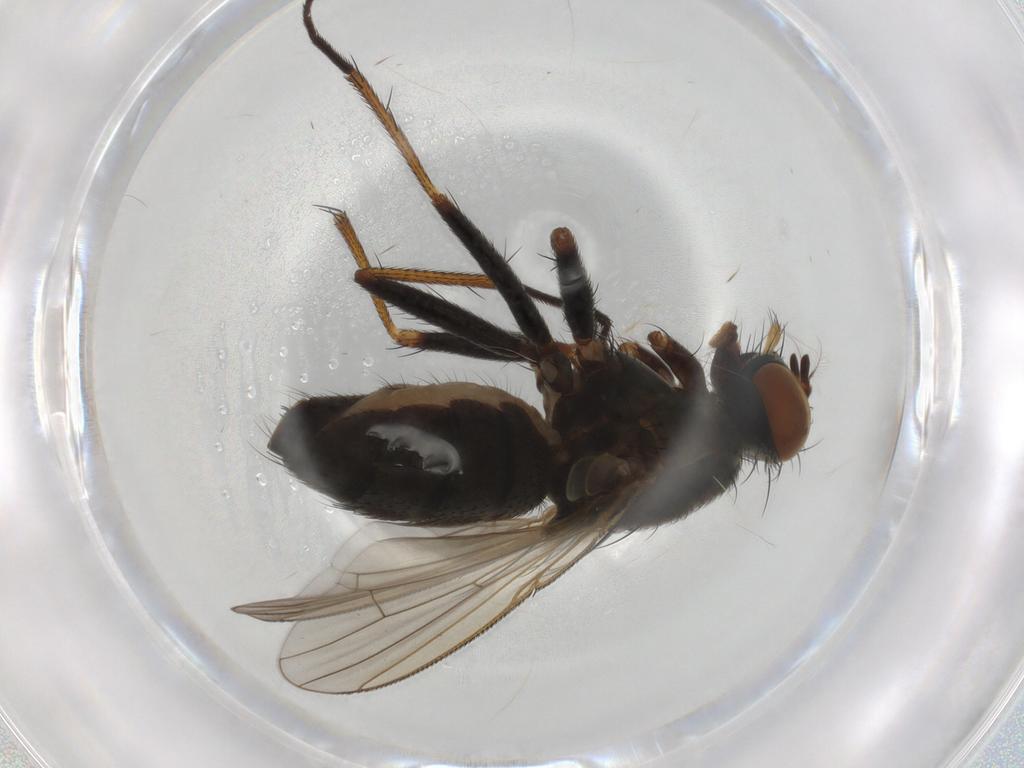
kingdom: Animalia
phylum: Arthropoda
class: Insecta
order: Diptera
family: Muscidae
